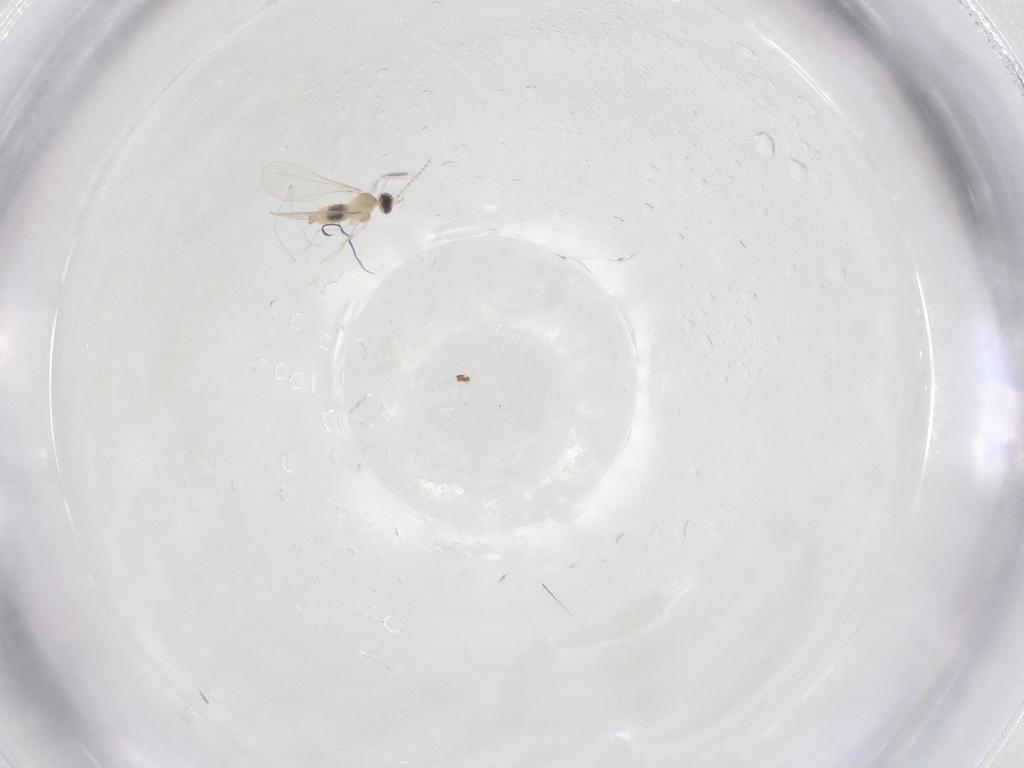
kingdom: Animalia
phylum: Arthropoda
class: Insecta
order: Diptera
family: Cecidomyiidae
